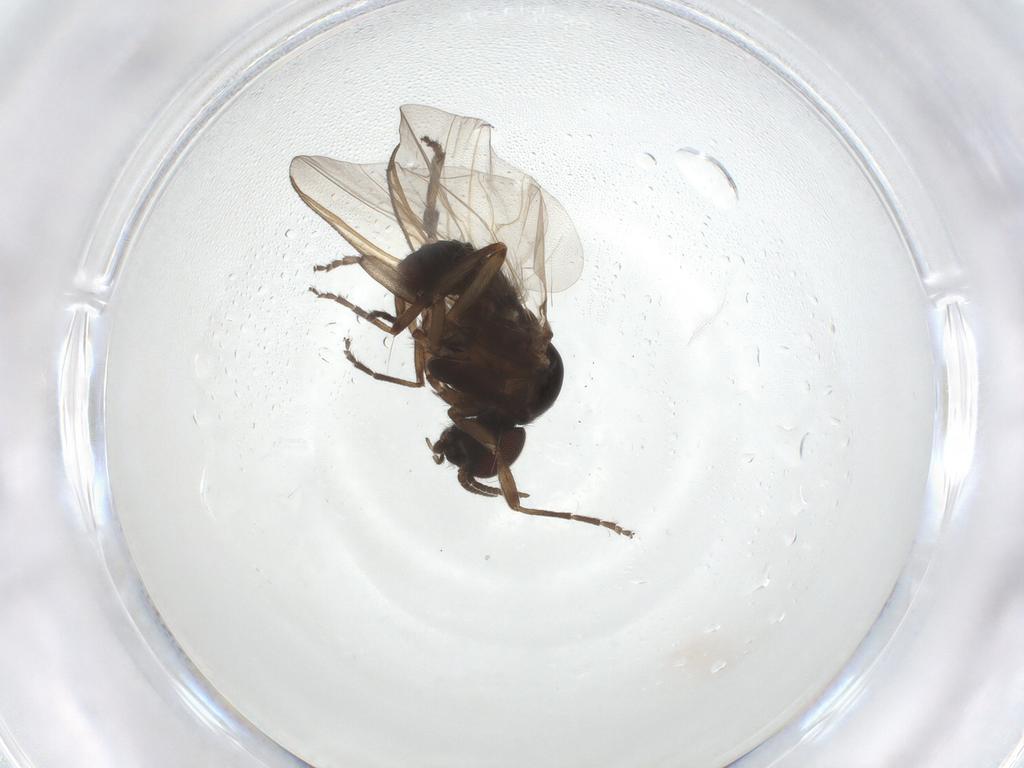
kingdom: Animalia
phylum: Arthropoda
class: Insecta
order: Diptera
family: Simuliidae
